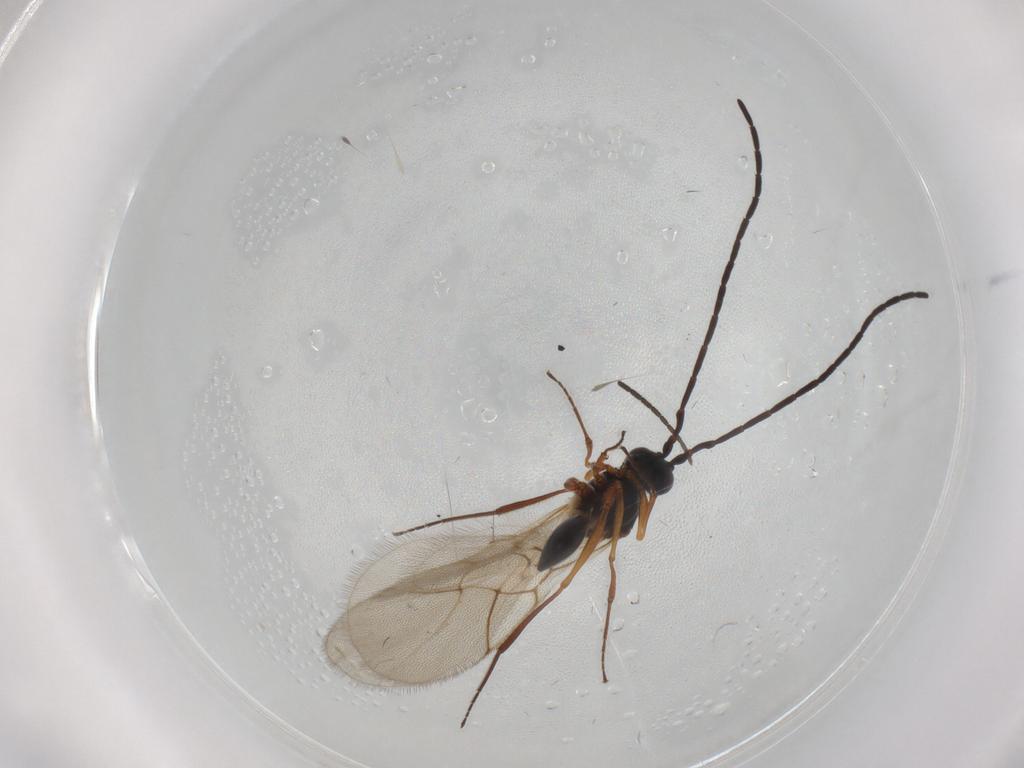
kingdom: Animalia
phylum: Arthropoda
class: Insecta
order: Hymenoptera
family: Figitidae
